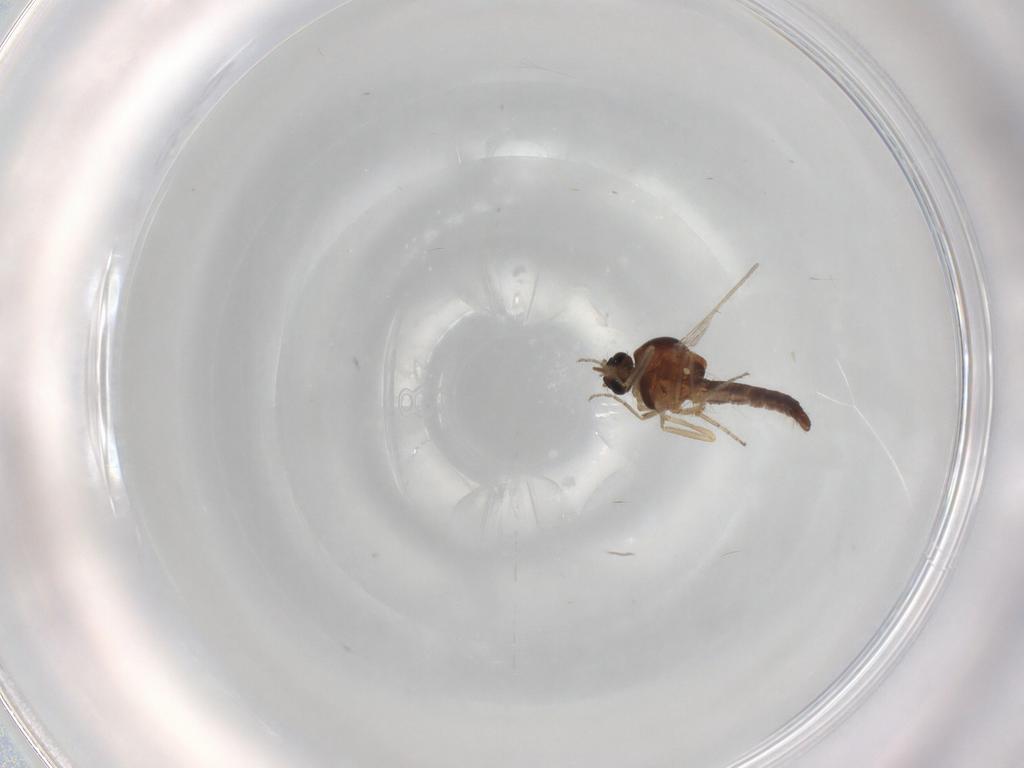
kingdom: Animalia
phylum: Arthropoda
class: Insecta
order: Diptera
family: Ceratopogonidae
